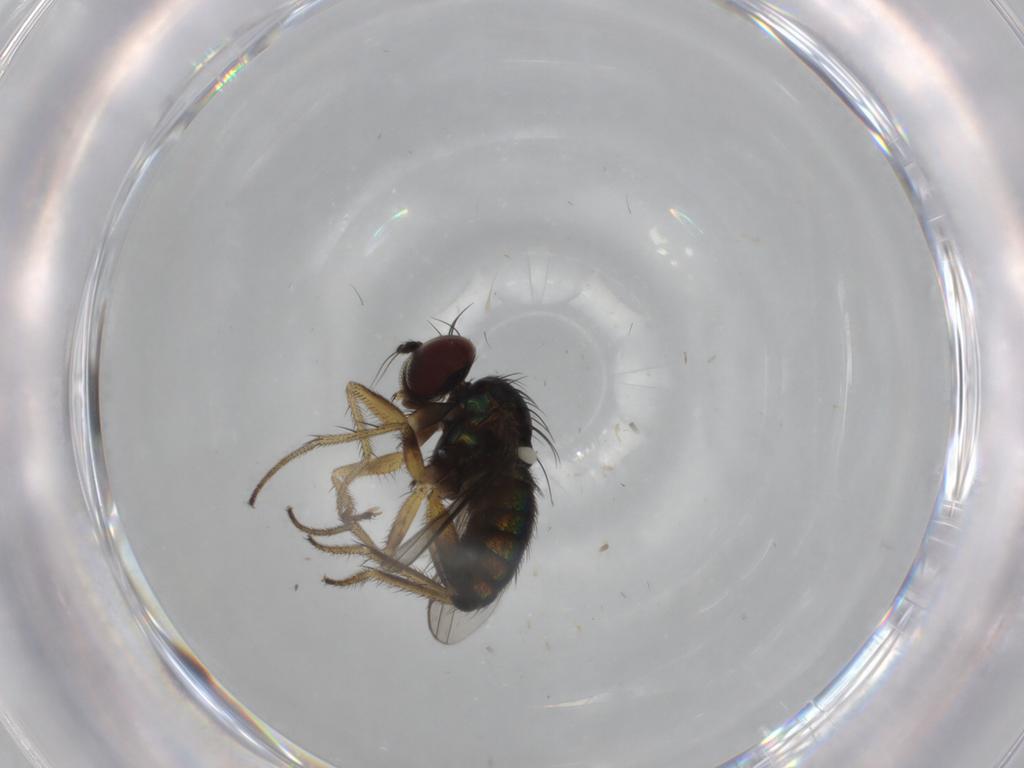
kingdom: Animalia
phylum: Arthropoda
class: Insecta
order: Diptera
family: Dolichopodidae
